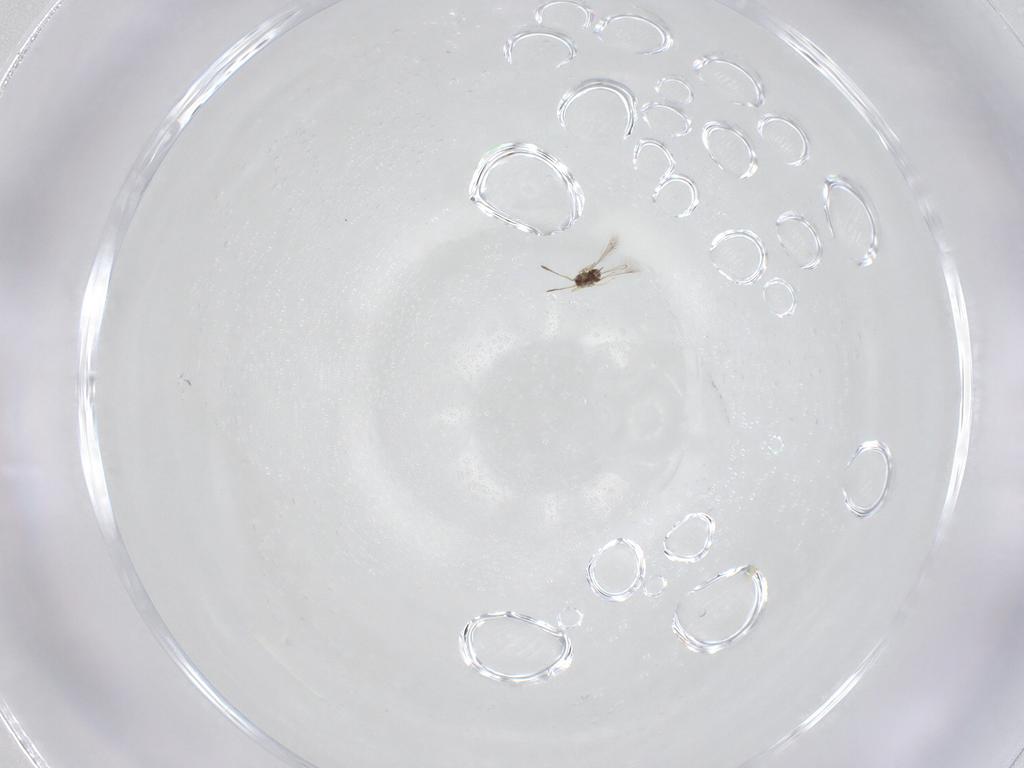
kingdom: Animalia
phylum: Arthropoda
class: Insecta
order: Hymenoptera
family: Mymaridae
